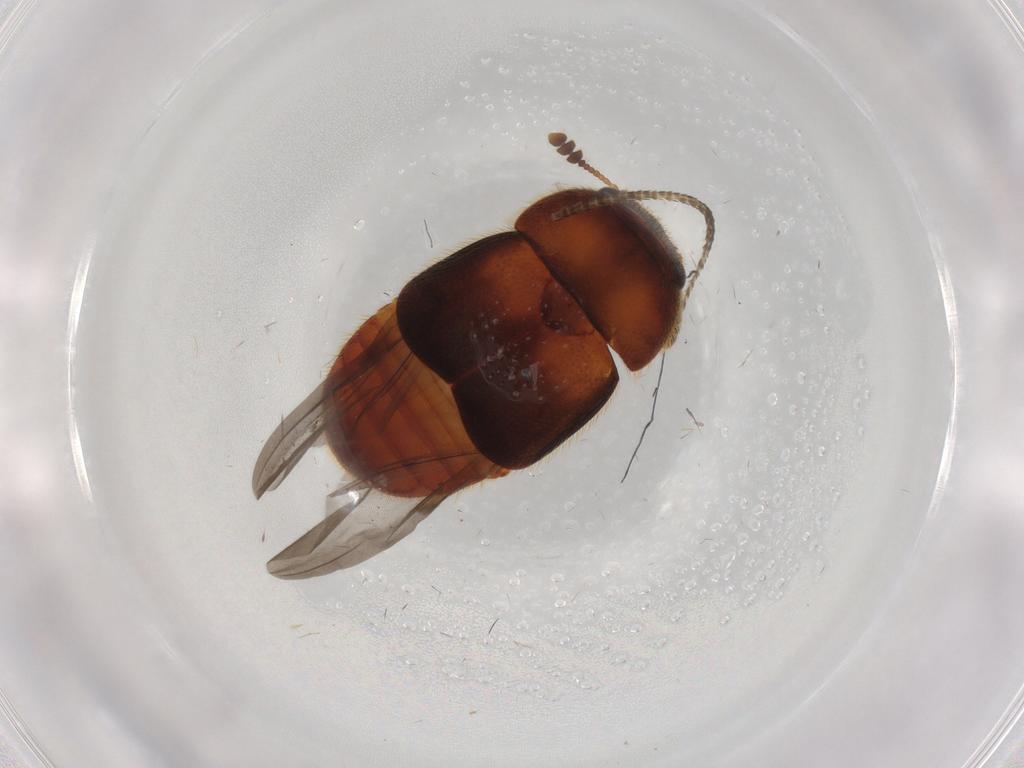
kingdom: Animalia
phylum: Arthropoda
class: Insecta
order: Coleoptera
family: Nitidulidae
